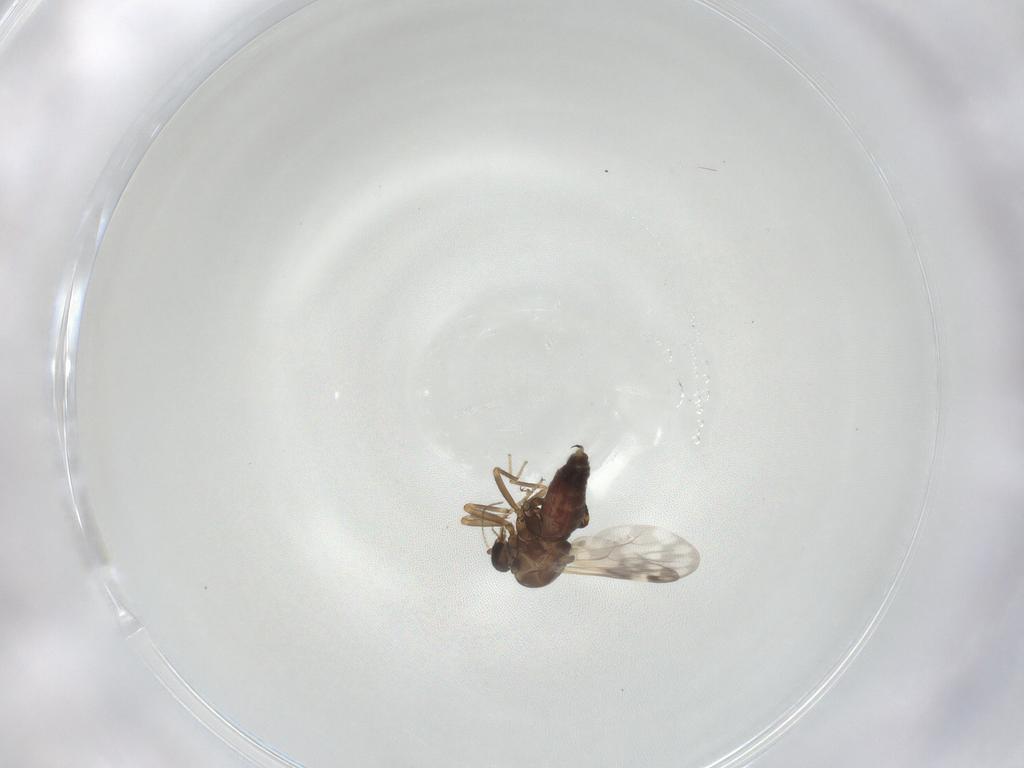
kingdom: Animalia
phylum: Arthropoda
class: Insecta
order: Diptera
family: Ceratopogonidae
